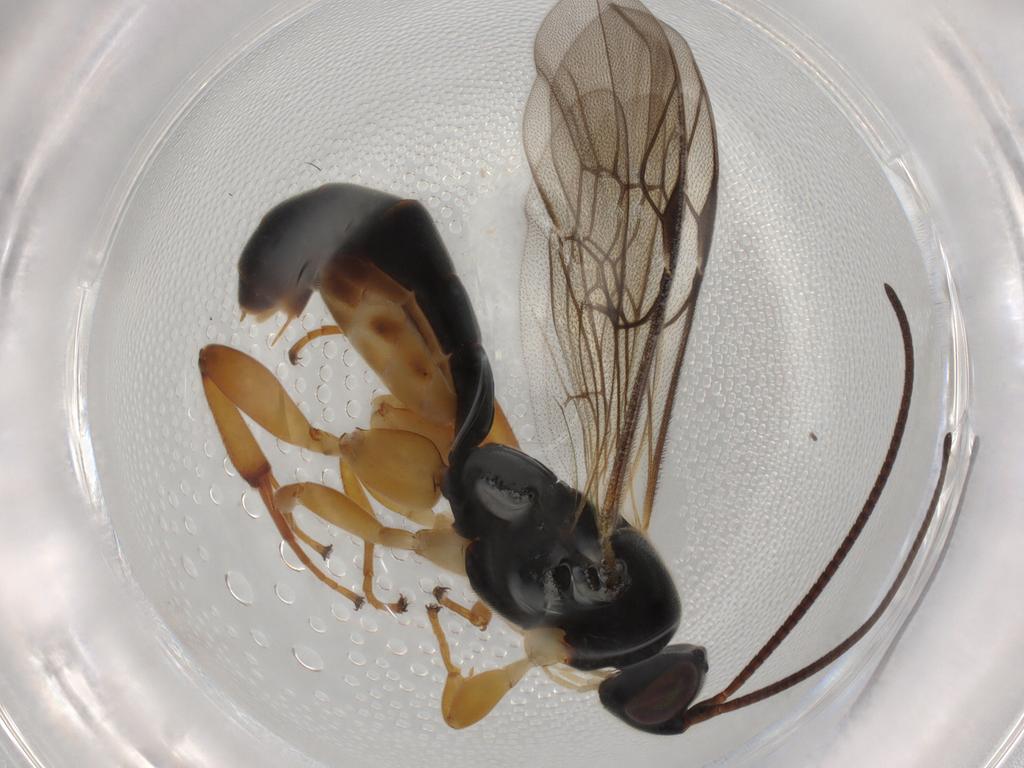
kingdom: Animalia
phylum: Arthropoda
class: Insecta
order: Hymenoptera
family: Ichneumonidae
